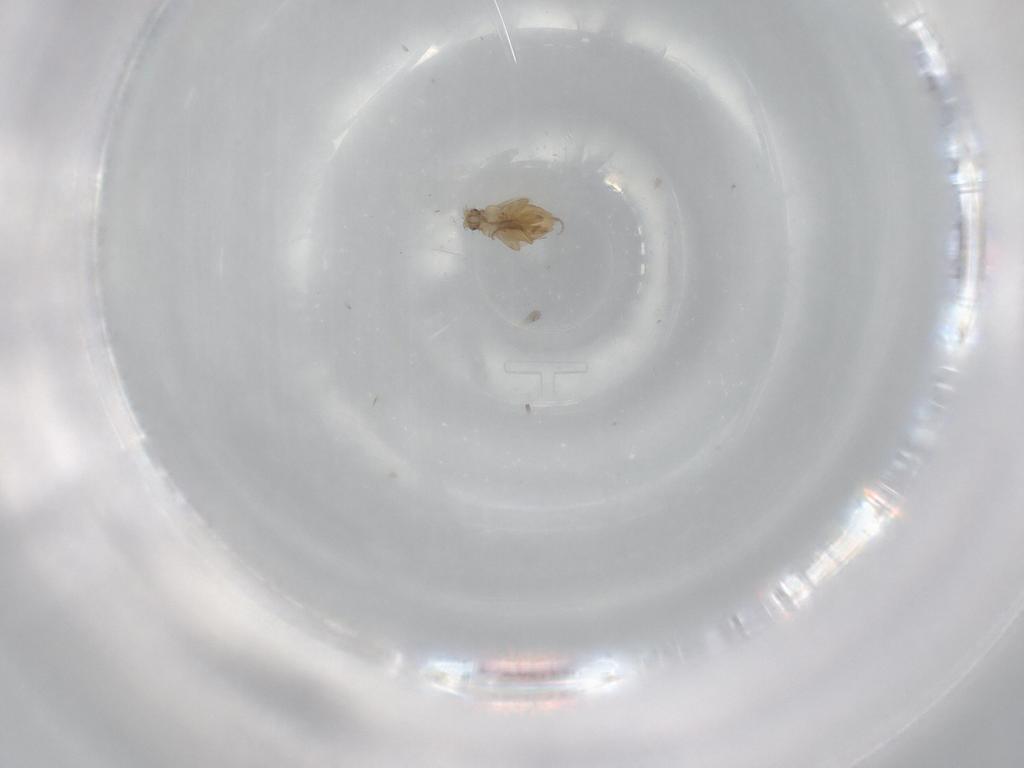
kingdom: Animalia
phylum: Arthropoda
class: Insecta
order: Diptera
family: Phoridae
